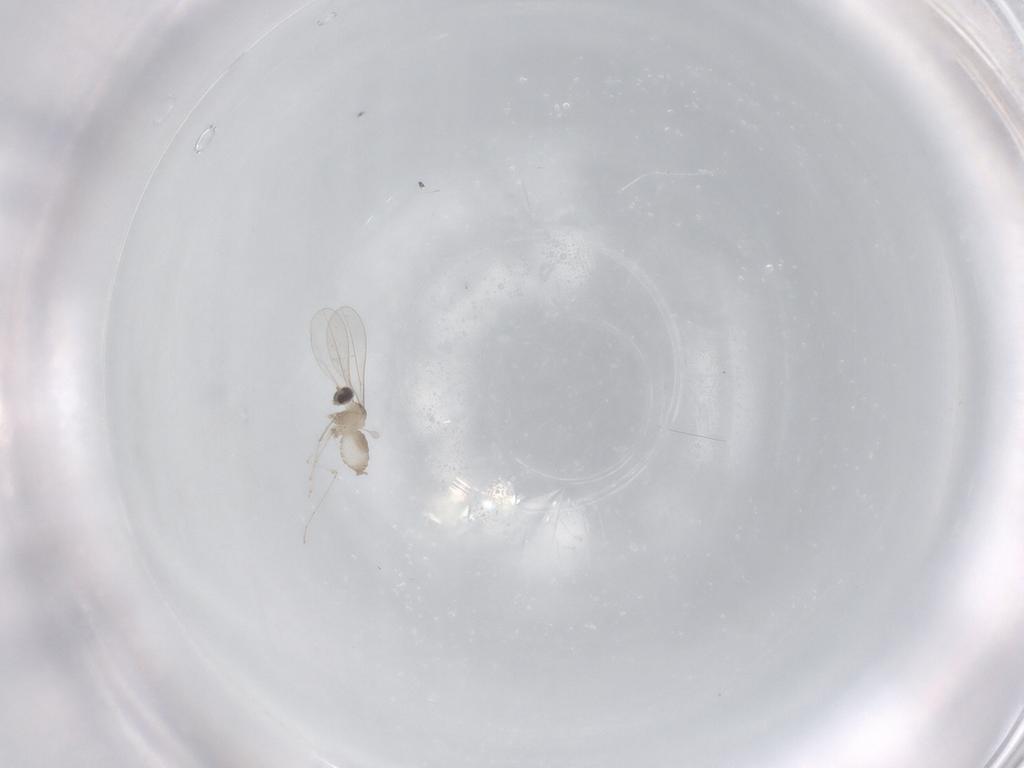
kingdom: Animalia
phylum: Arthropoda
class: Insecta
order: Diptera
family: Cecidomyiidae
